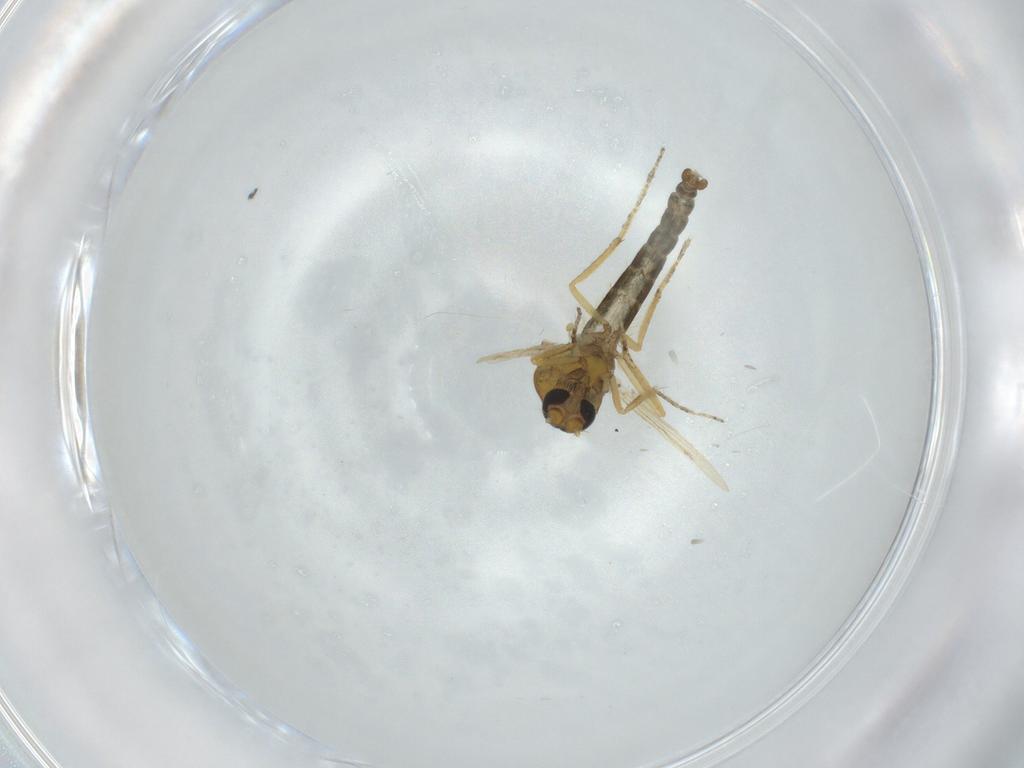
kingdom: Animalia
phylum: Arthropoda
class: Insecta
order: Diptera
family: Ceratopogonidae
